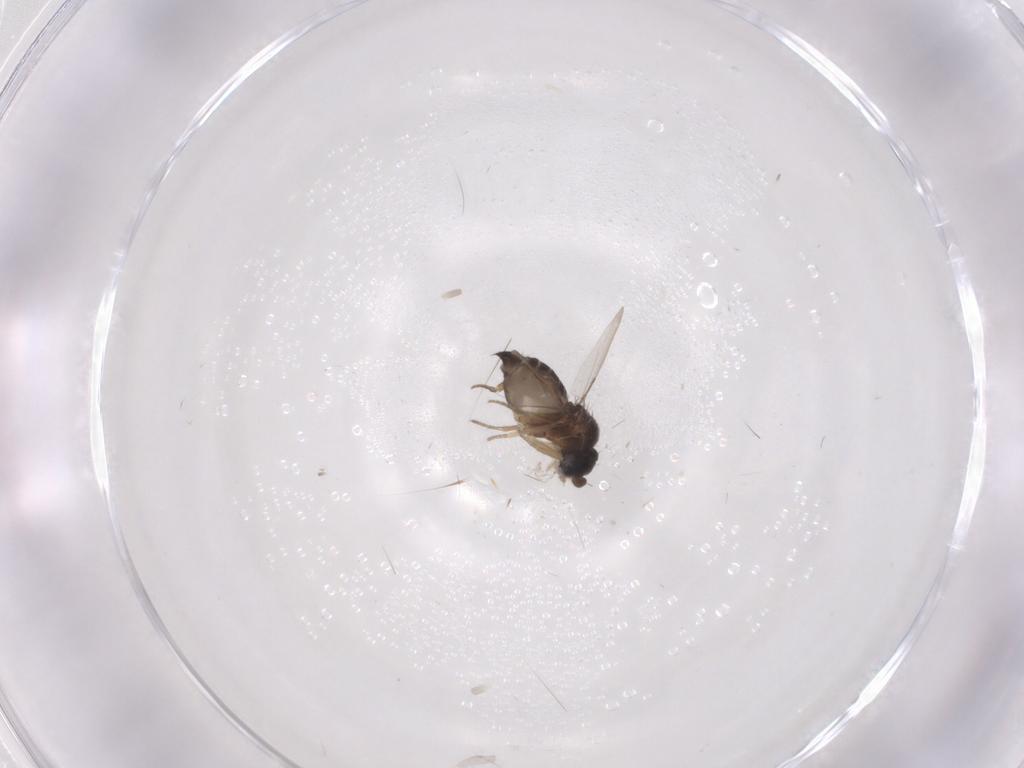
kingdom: Animalia
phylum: Arthropoda
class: Insecta
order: Diptera
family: Phoridae
